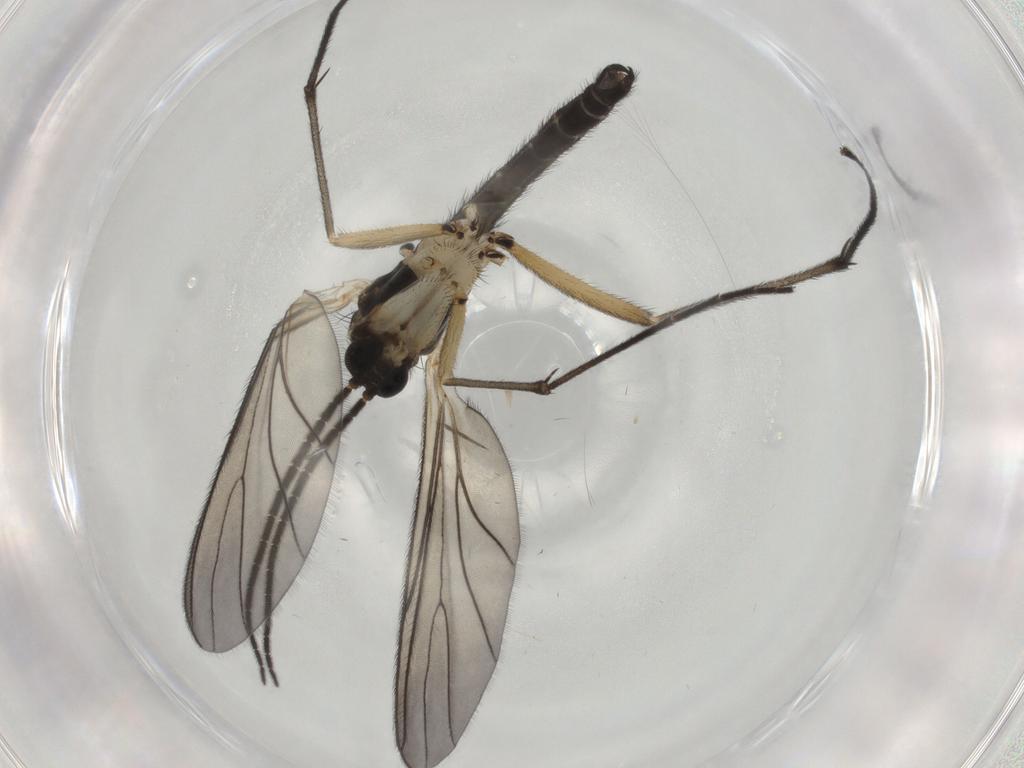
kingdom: Animalia
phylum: Arthropoda
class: Insecta
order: Diptera
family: Sciaridae
